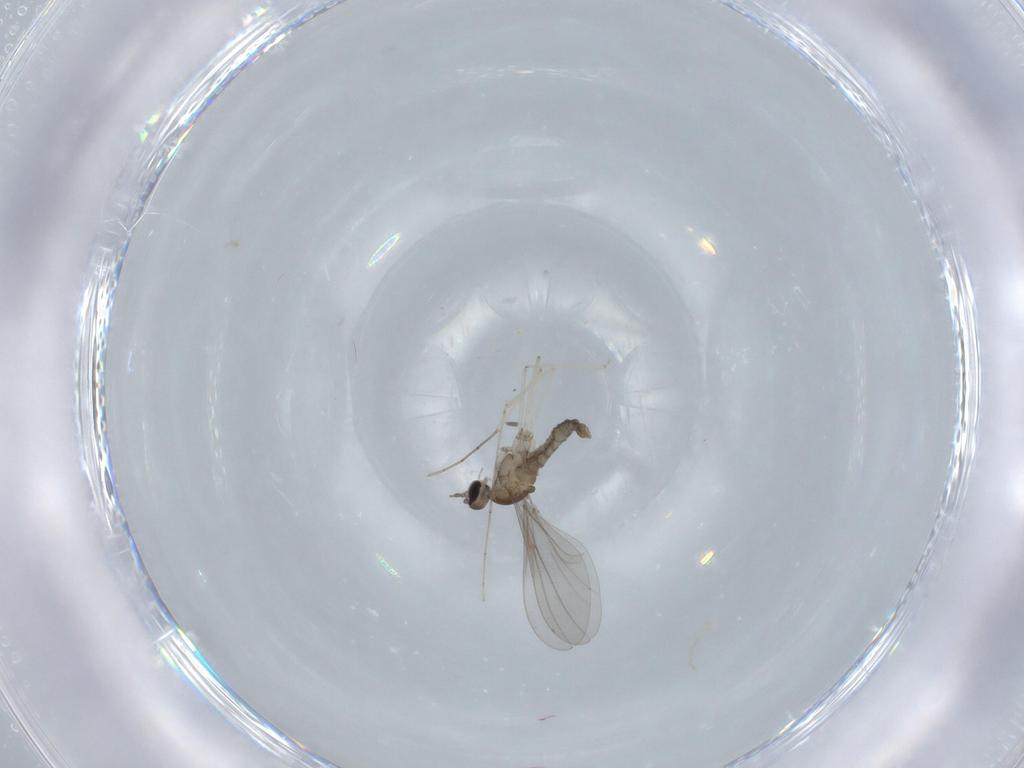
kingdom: Animalia
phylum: Arthropoda
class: Insecta
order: Diptera
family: Cecidomyiidae
